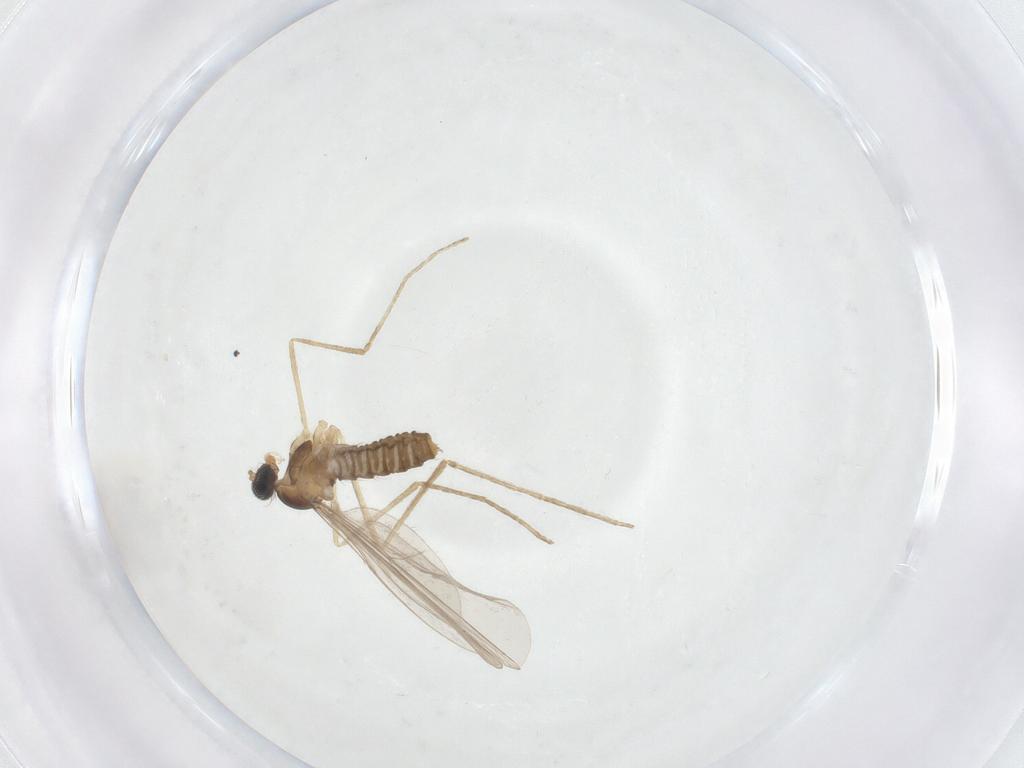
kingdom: Animalia
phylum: Arthropoda
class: Insecta
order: Diptera
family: Cecidomyiidae
